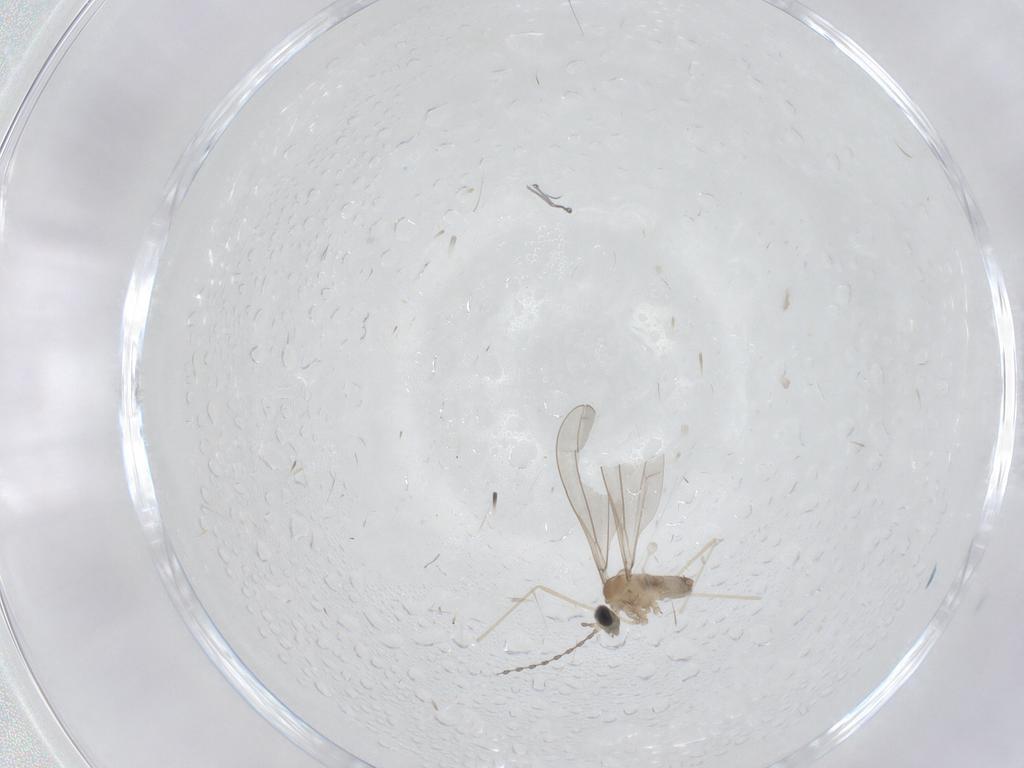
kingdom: Animalia
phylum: Arthropoda
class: Insecta
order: Diptera
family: Cecidomyiidae
